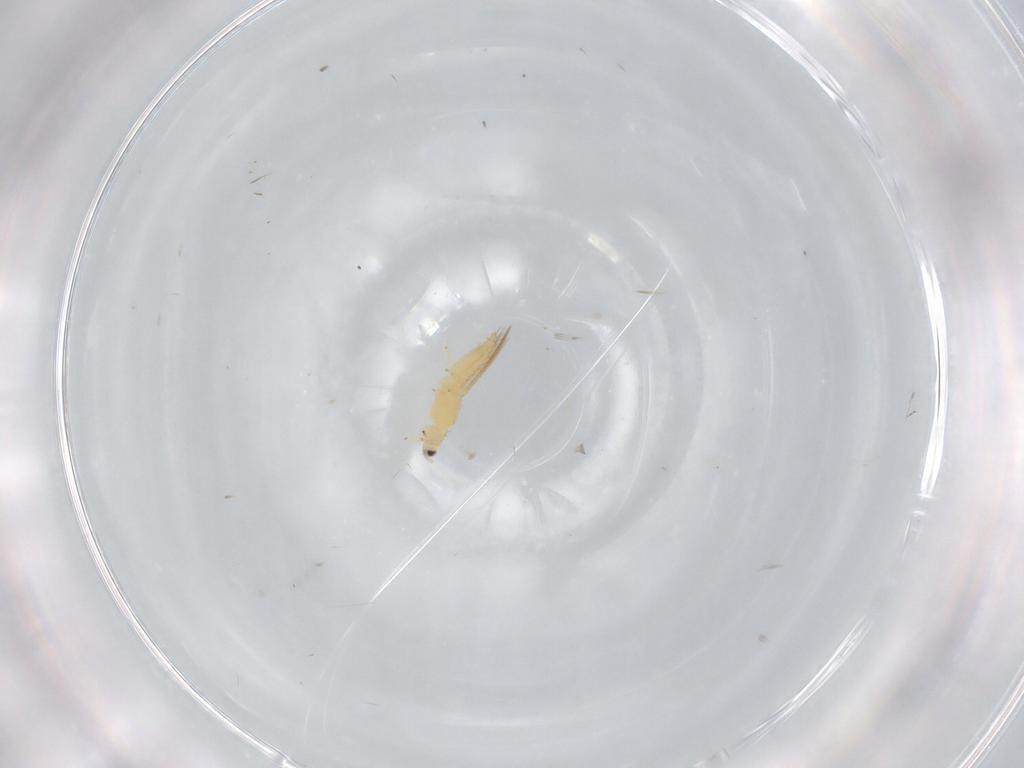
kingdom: Animalia
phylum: Arthropoda
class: Insecta
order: Thysanoptera
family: Thripidae
